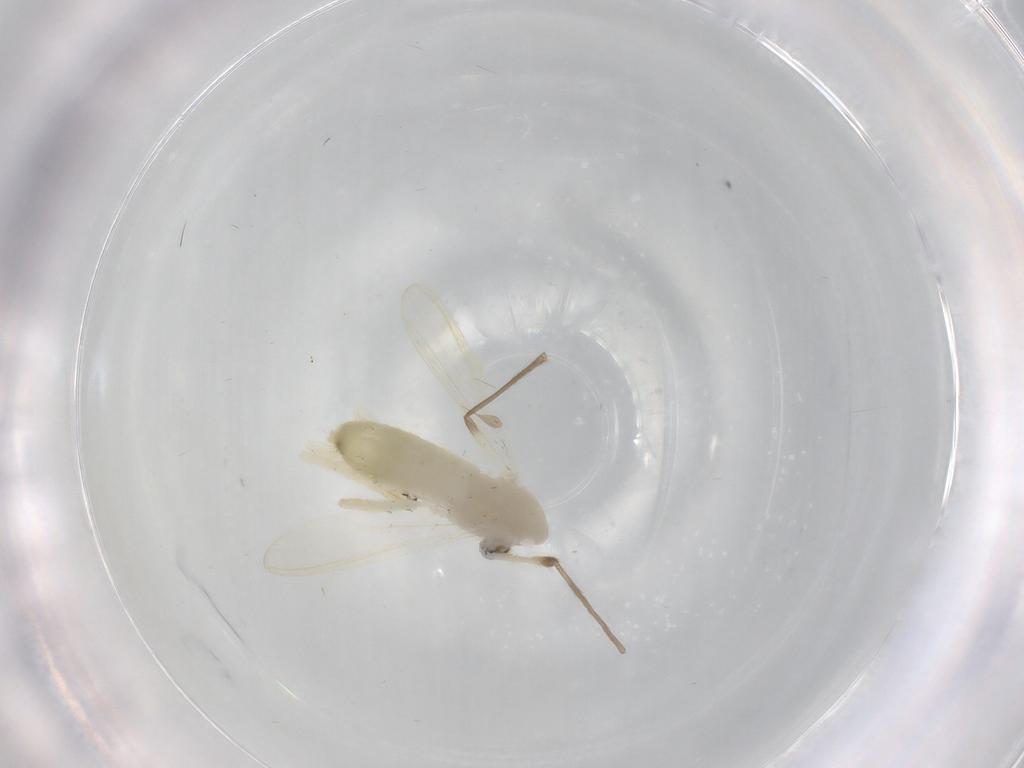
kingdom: Animalia
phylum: Arthropoda
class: Insecta
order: Diptera
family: Chironomidae
